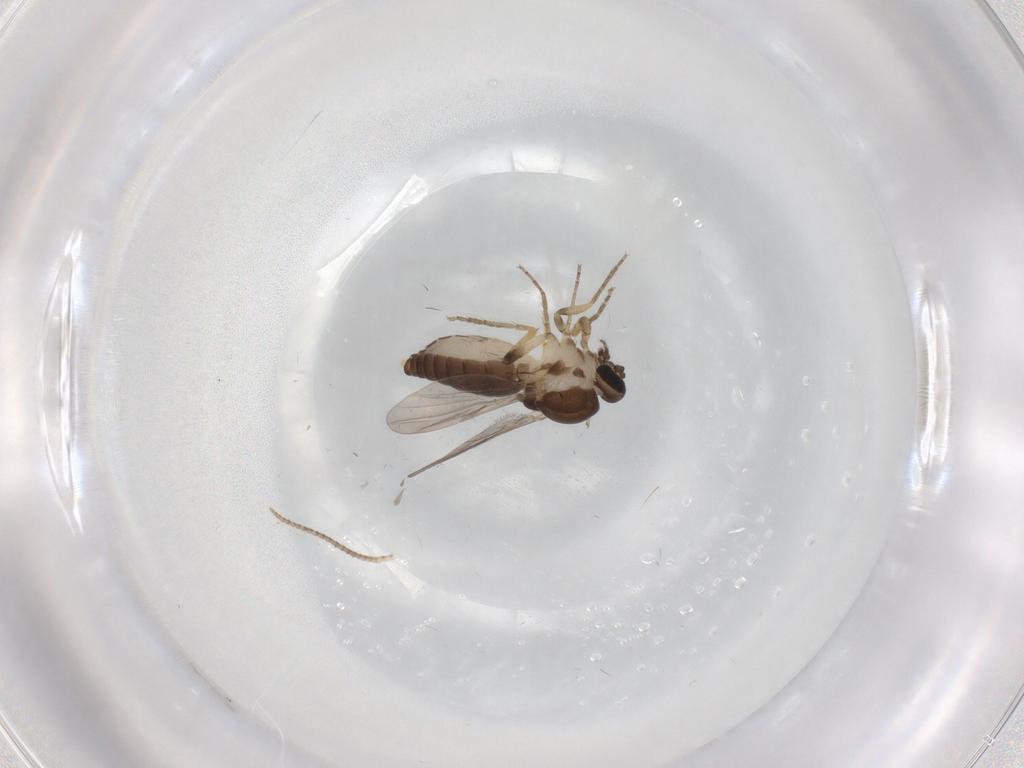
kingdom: Animalia
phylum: Arthropoda
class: Insecta
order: Diptera
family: Ceratopogonidae
